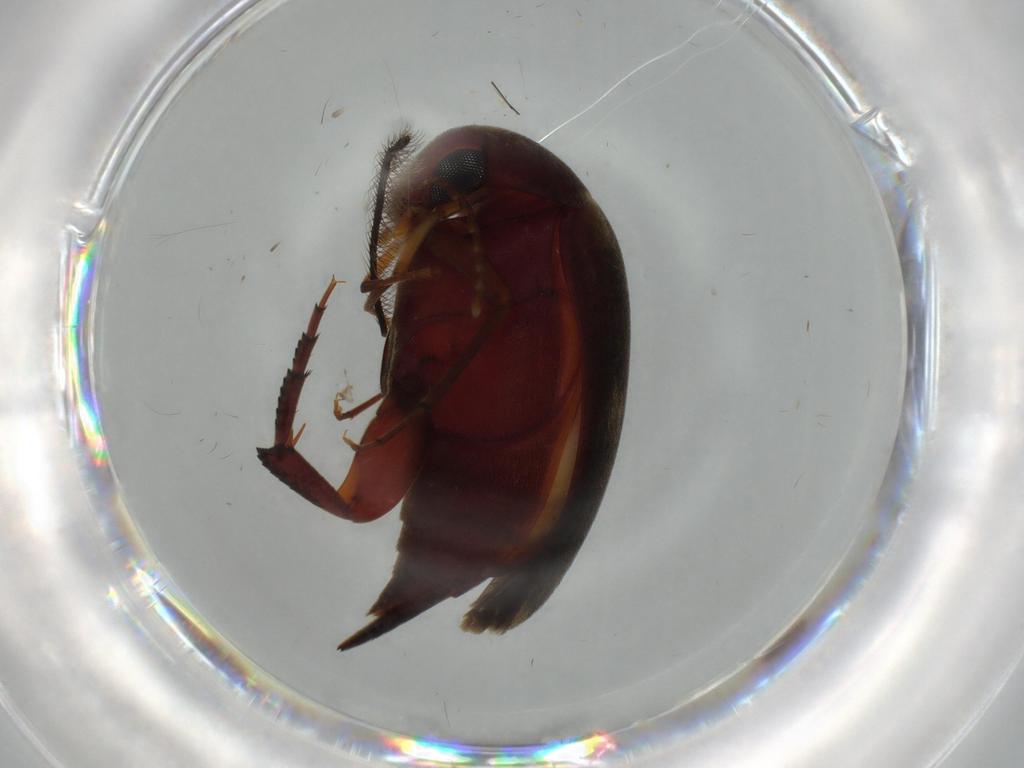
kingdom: Animalia
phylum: Arthropoda
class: Insecta
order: Coleoptera
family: Mordellidae
